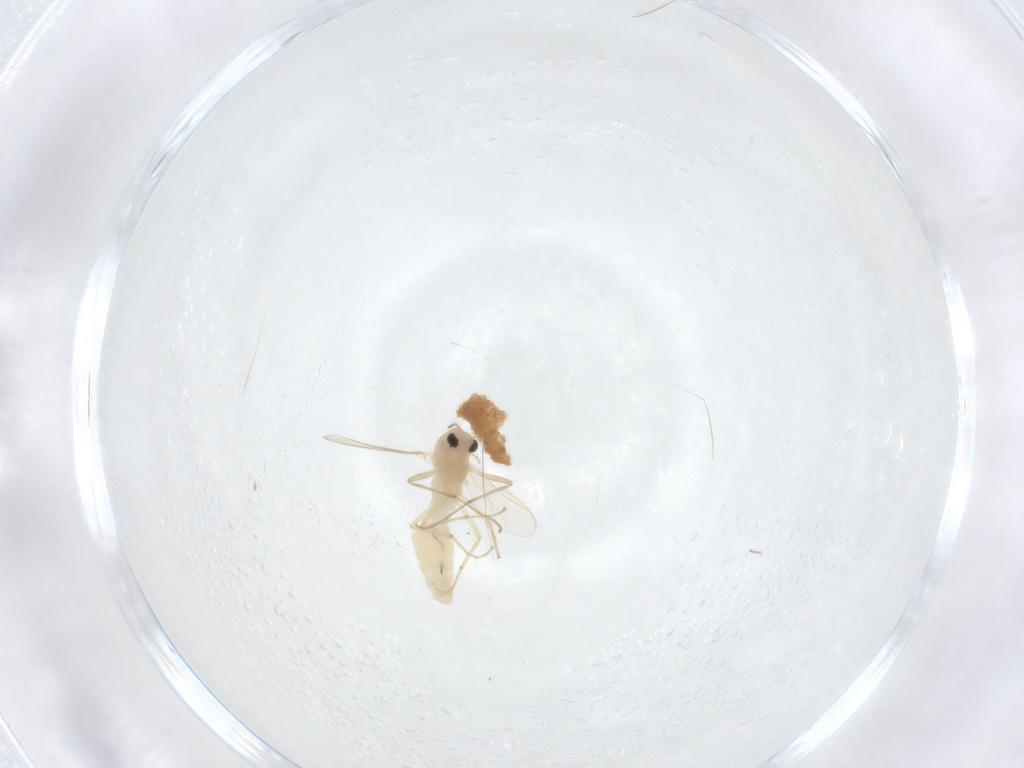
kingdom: Animalia
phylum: Arthropoda
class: Insecta
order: Diptera
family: Chironomidae
